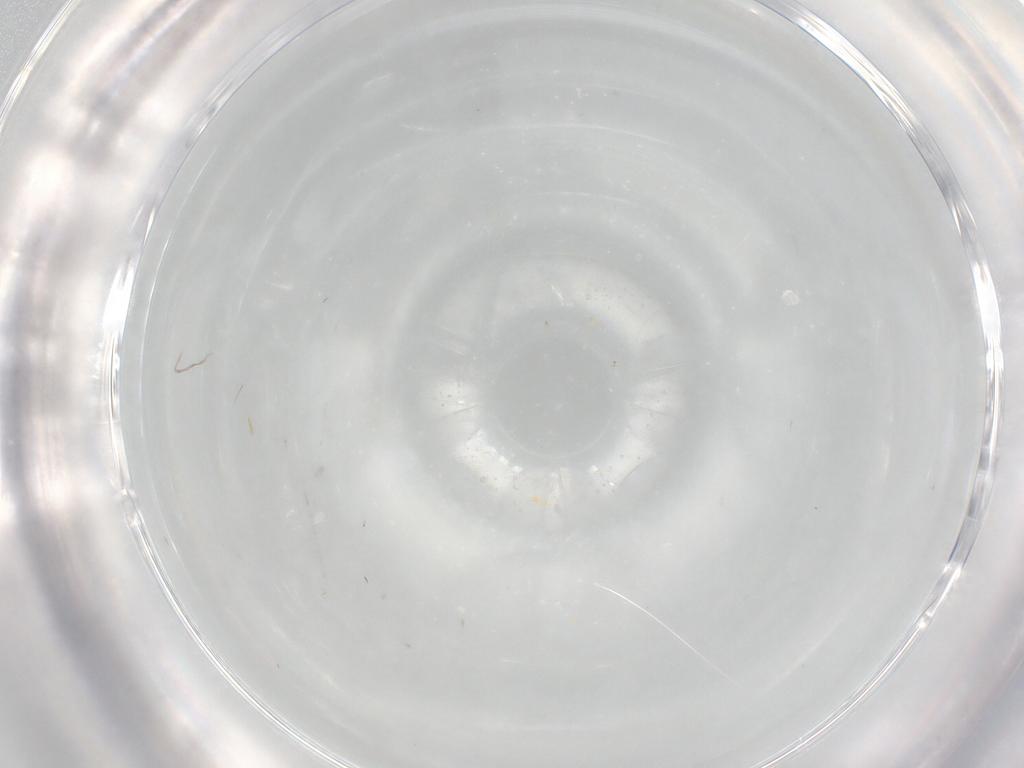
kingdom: Animalia
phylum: Arthropoda
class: Insecta
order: Diptera
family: Phoridae
